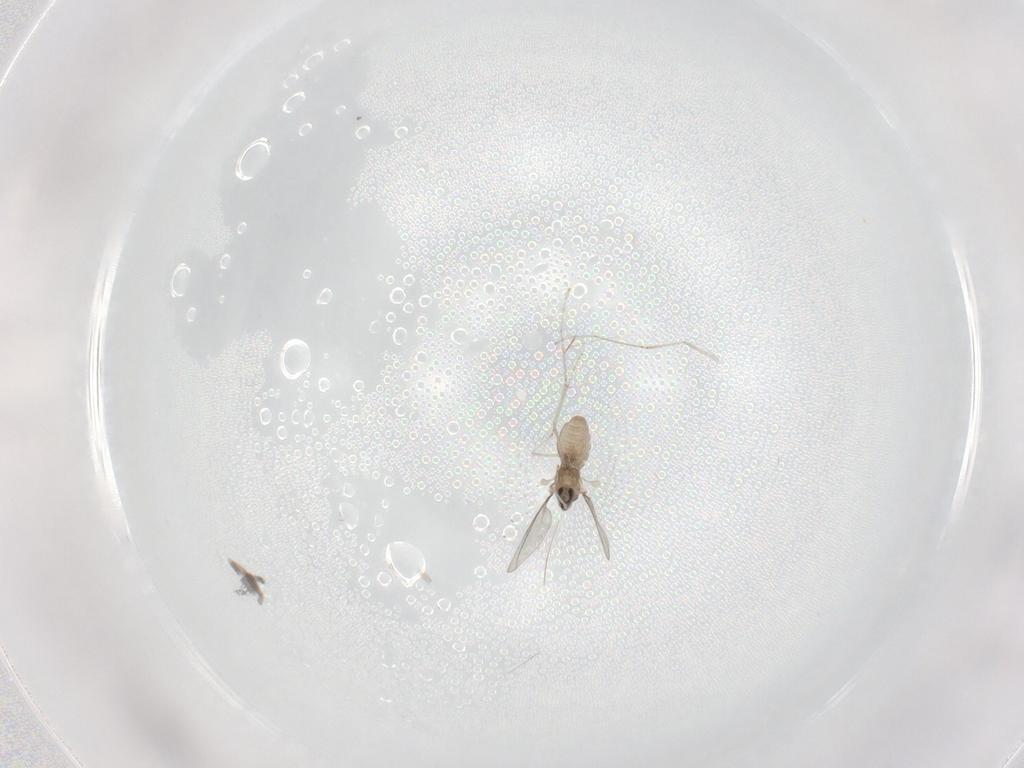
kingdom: Animalia
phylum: Arthropoda
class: Insecta
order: Diptera
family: Cecidomyiidae
